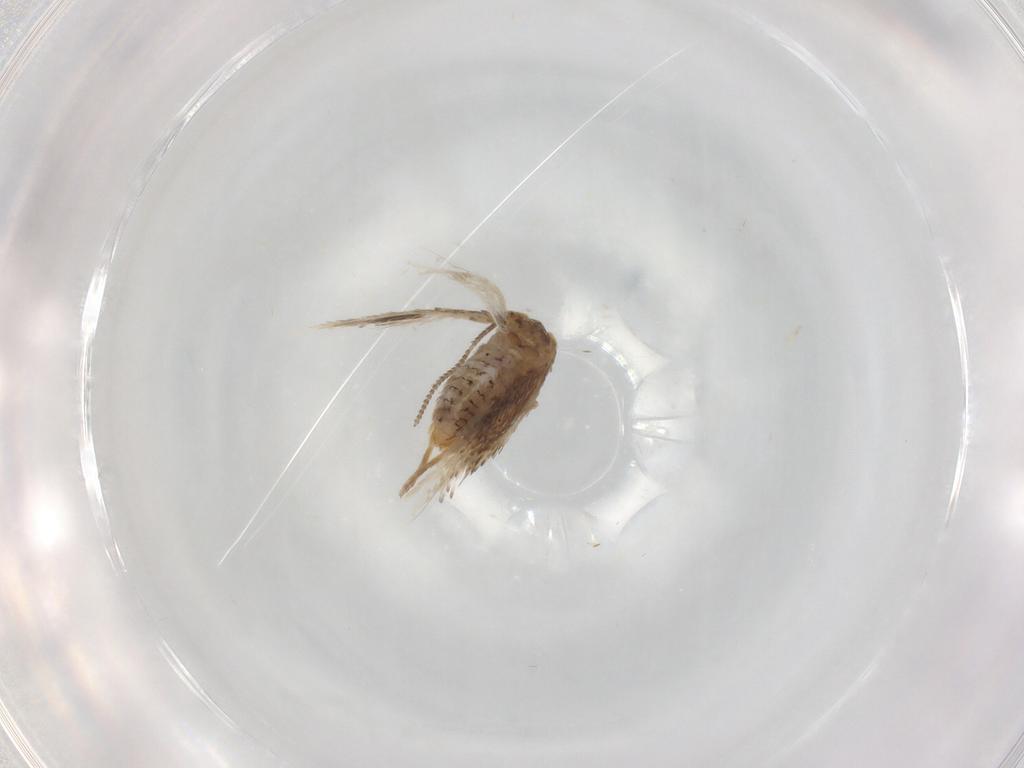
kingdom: Animalia
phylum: Arthropoda
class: Insecta
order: Lepidoptera
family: Nepticulidae
